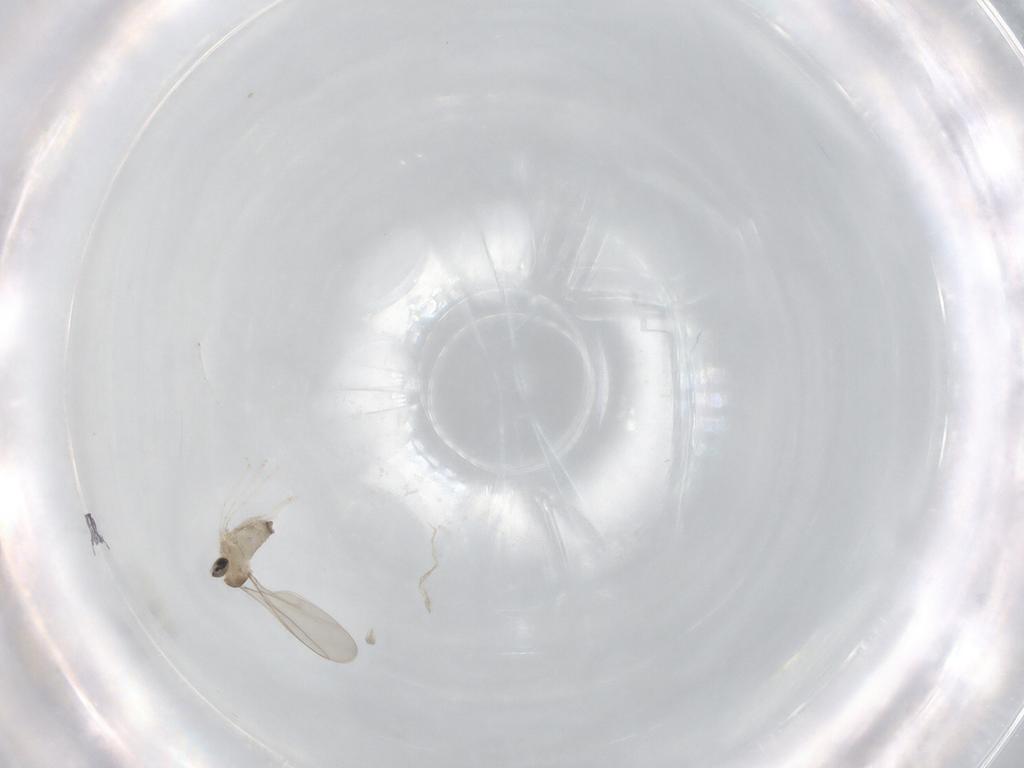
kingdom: Animalia
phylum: Arthropoda
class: Insecta
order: Diptera
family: Cecidomyiidae
